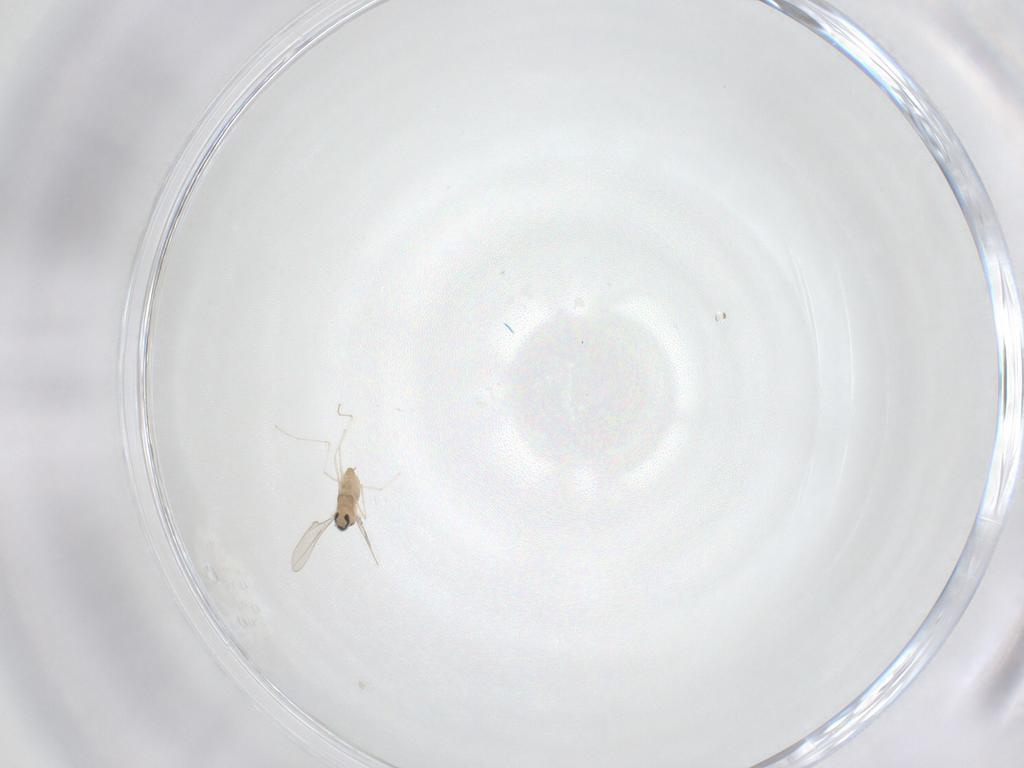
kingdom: Animalia
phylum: Arthropoda
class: Insecta
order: Diptera
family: Cecidomyiidae
